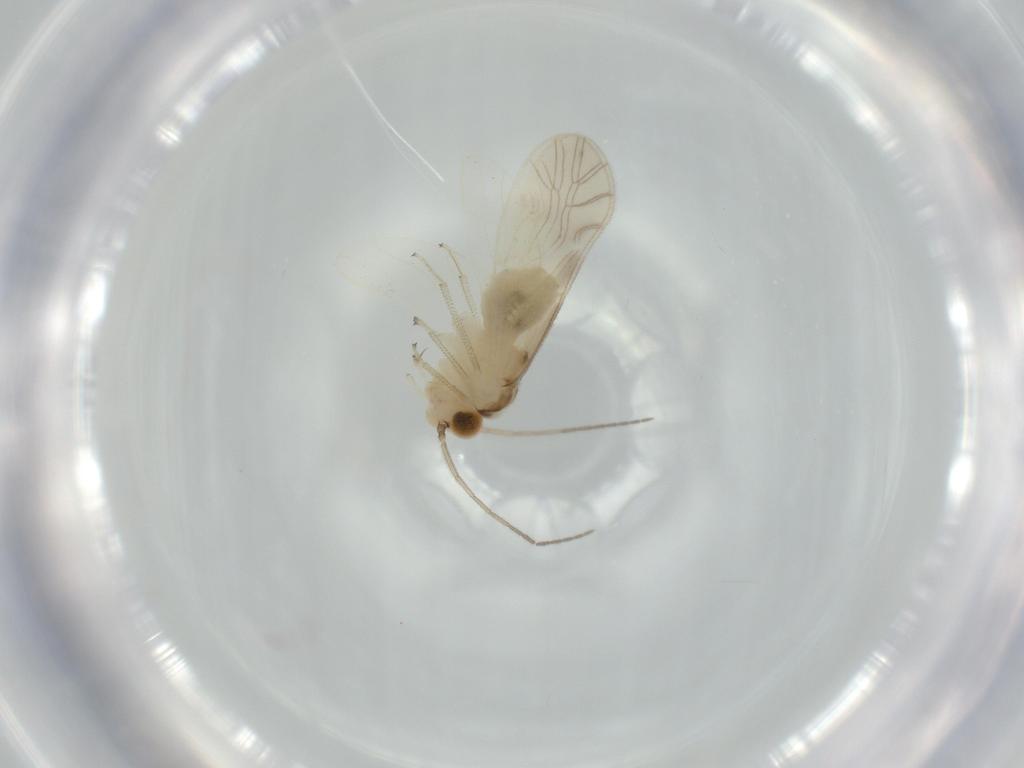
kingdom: Animalia
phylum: Arthropoda
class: Insecta
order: Psocodea
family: Caeciliusidae
